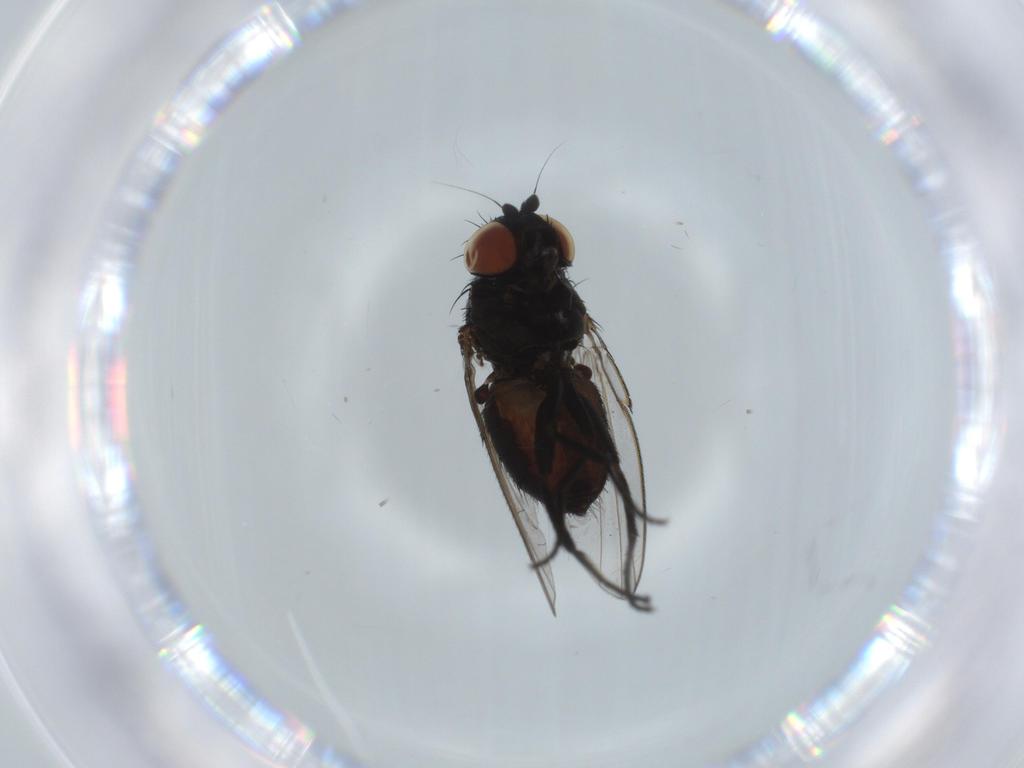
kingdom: Animalia
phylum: Arthropoda
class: Insecta
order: Diptera
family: Milichiidae
